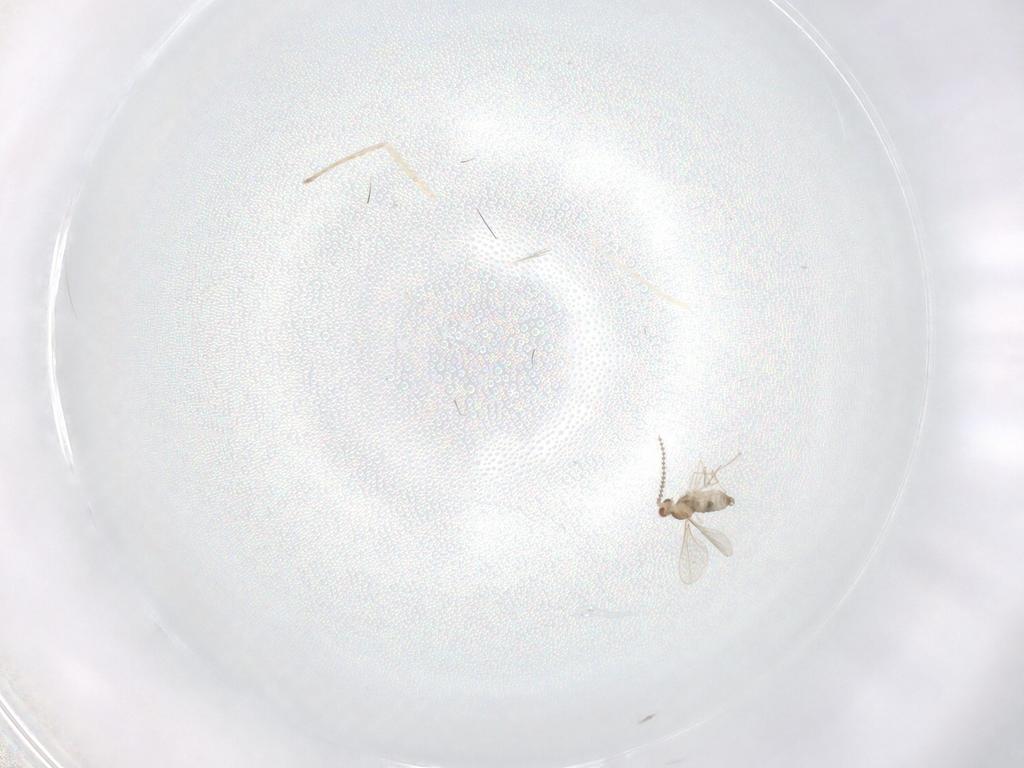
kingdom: Animalia
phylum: Arthropoda
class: Insecta
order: Diptera
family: Cecidomyiidae
